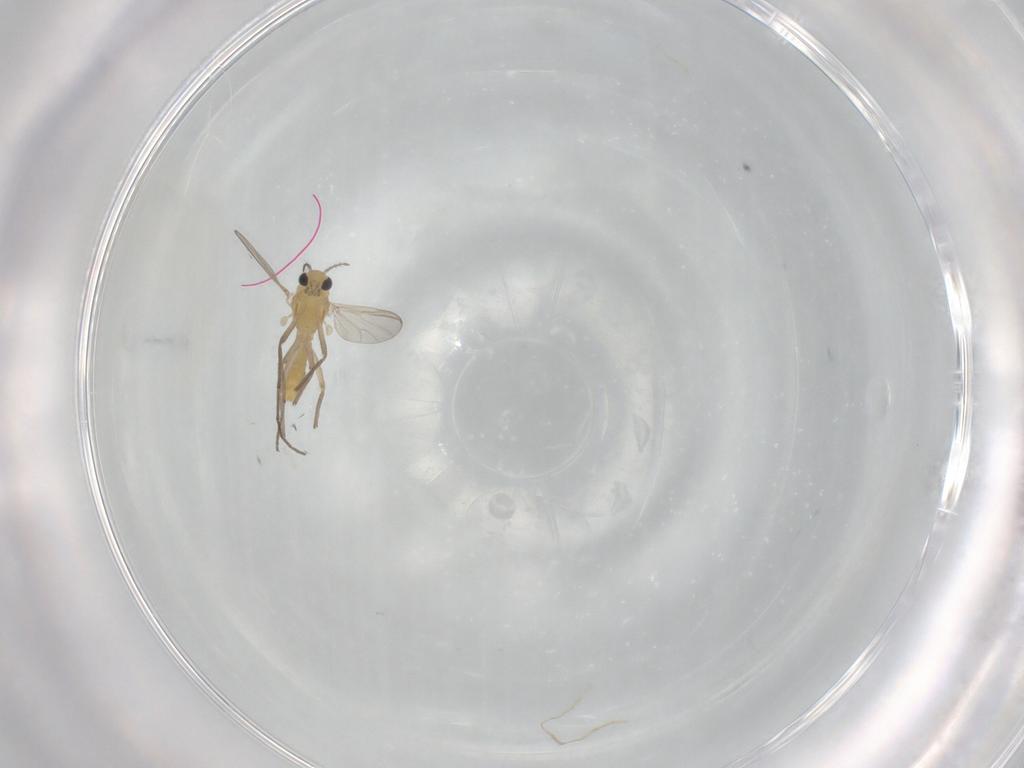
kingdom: Animalia
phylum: Arthropoda
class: Insecta
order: Diptera
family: Chironomidae
